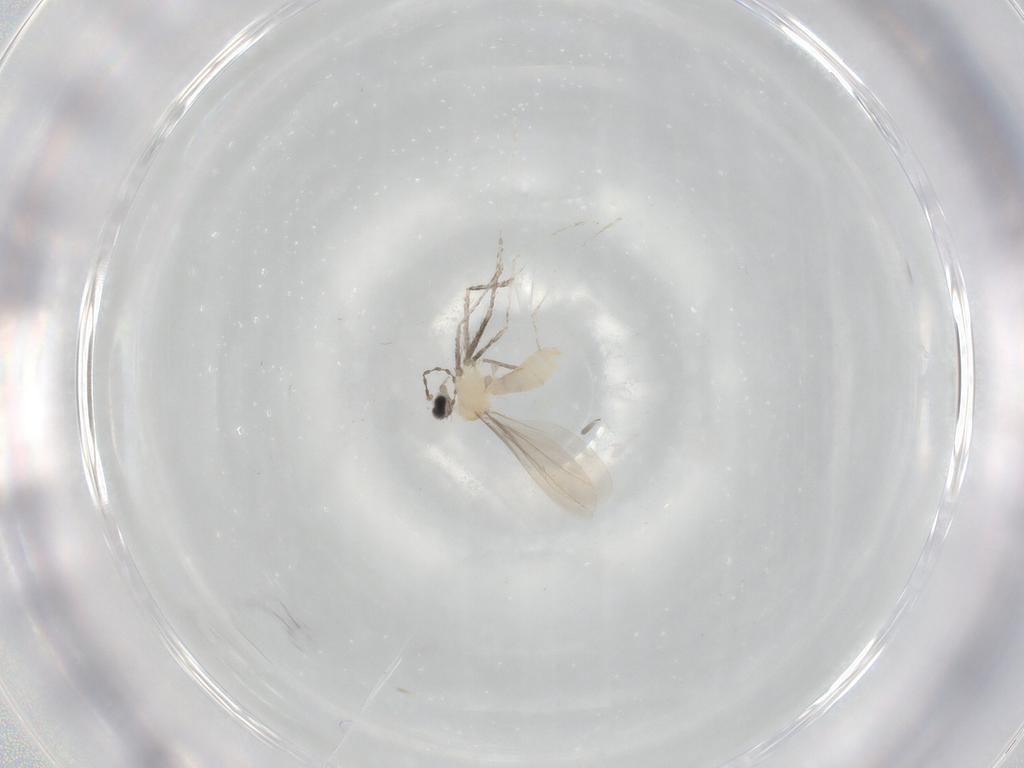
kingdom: Animalia
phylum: Arthropoda
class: Insecta
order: Diptera
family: Cecidomyiidae
